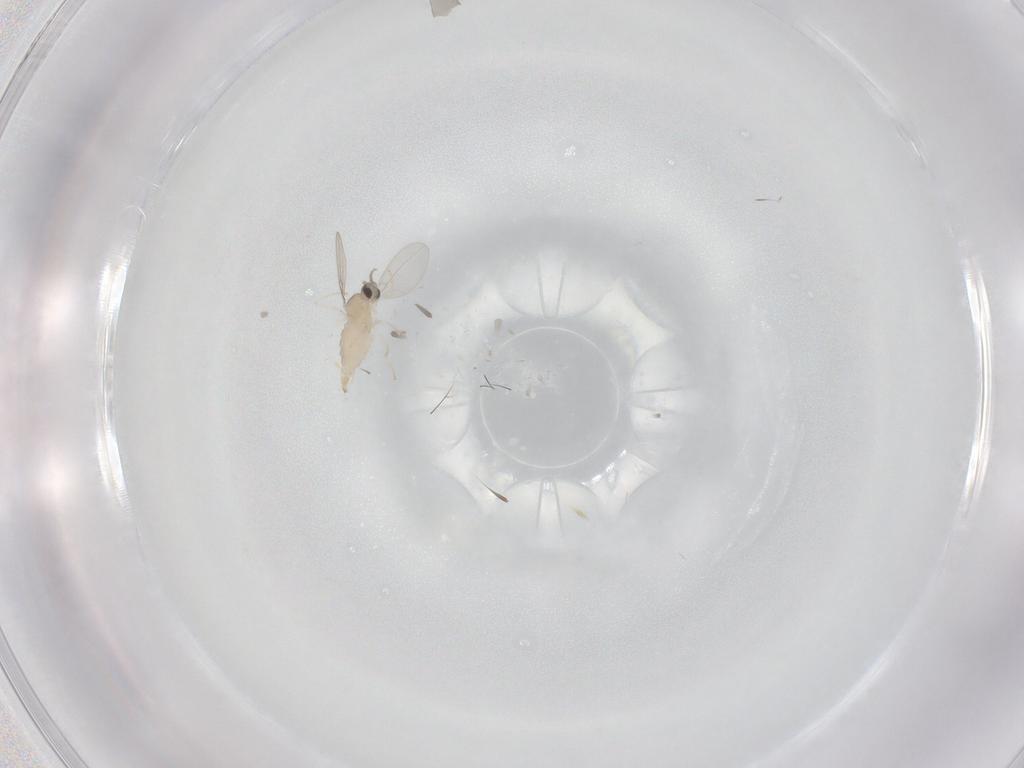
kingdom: Animalia
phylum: Arthropoda
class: Insecta
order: Diptera
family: Cecidomyiidae
